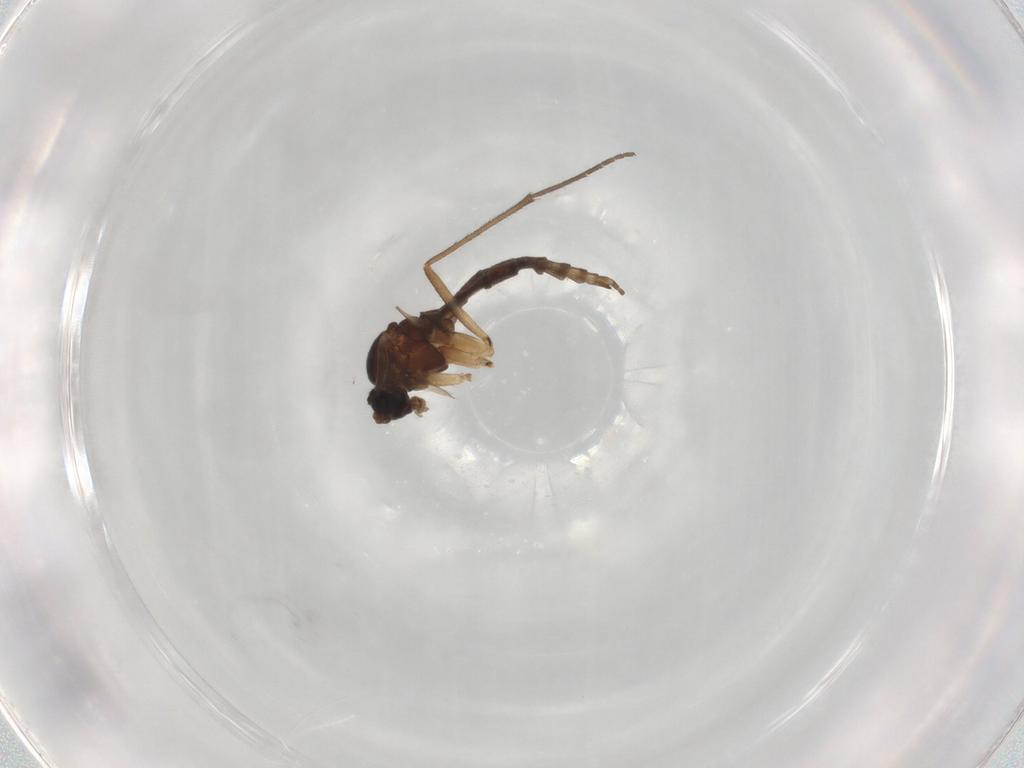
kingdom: Animalia
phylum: Arthropoda
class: Insecta
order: Diptera
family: Sciaridae
